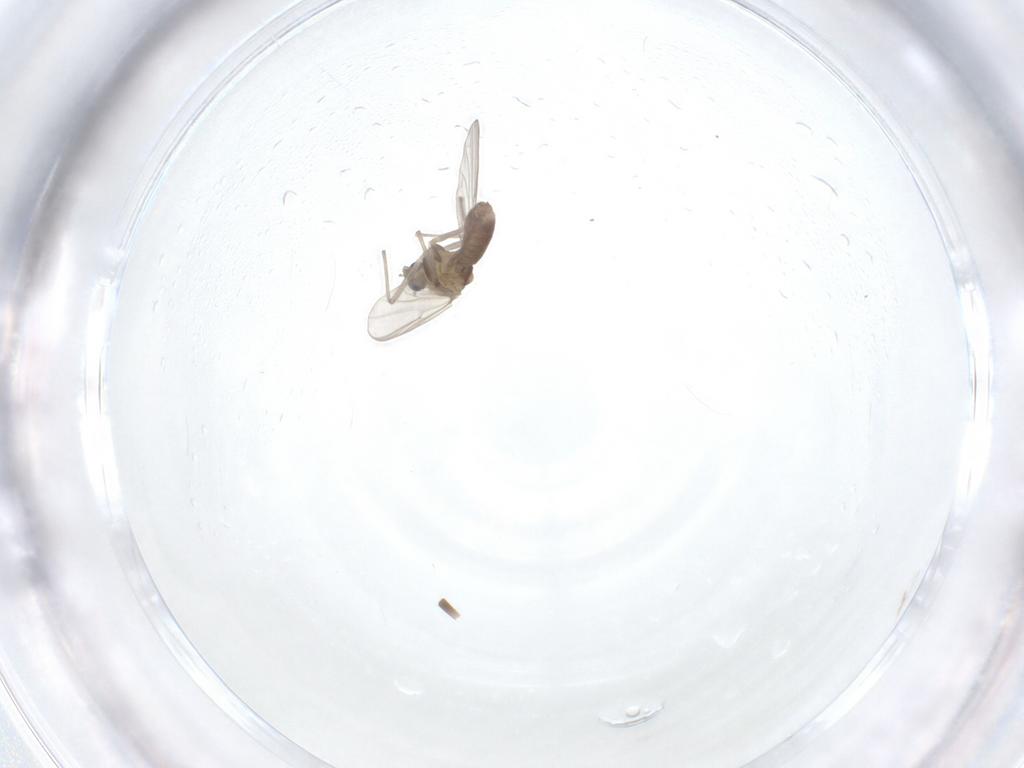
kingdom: Animalia
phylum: Arthropoda
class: Insecta
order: Diptera
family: Chironomidae
